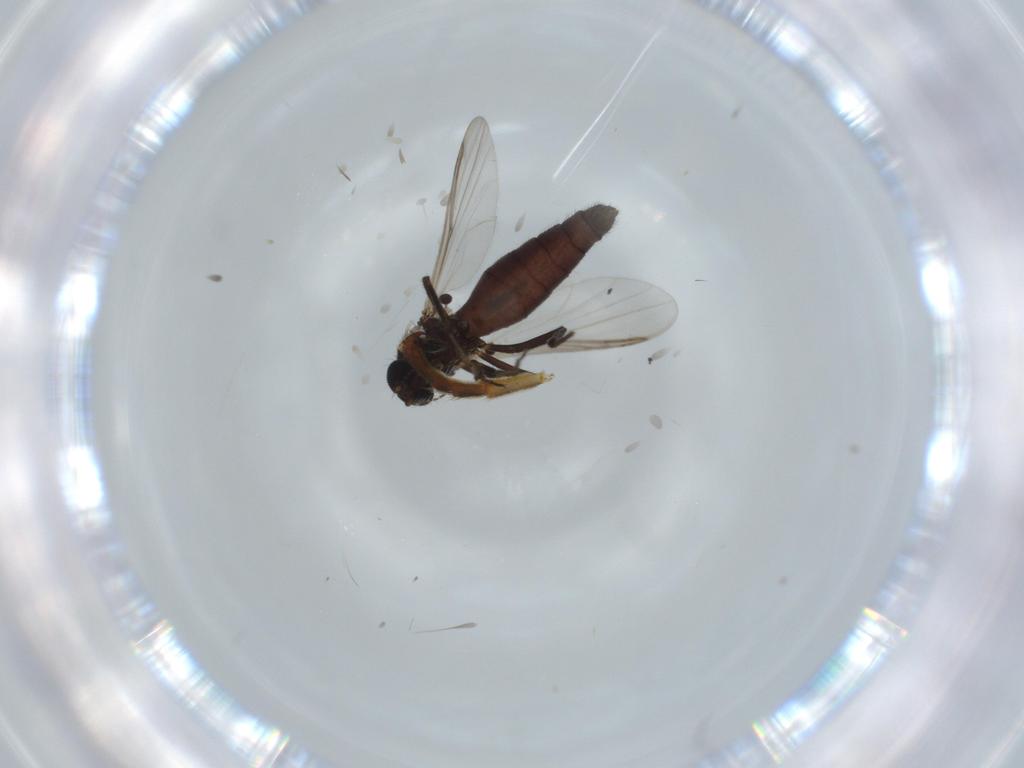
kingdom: Animalia
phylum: Arthropoda
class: Insecta
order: Diptera
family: Ceratopogonidae
